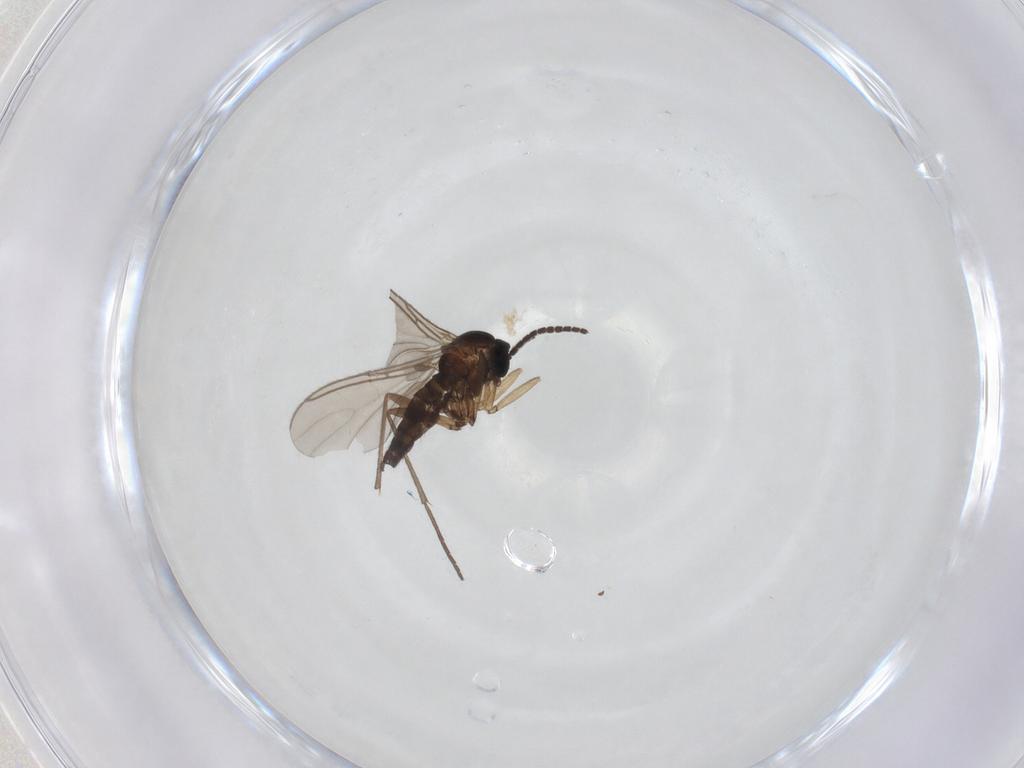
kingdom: Animalia
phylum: Arthropoda
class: Insecta
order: Diptera
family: Sciaridae
